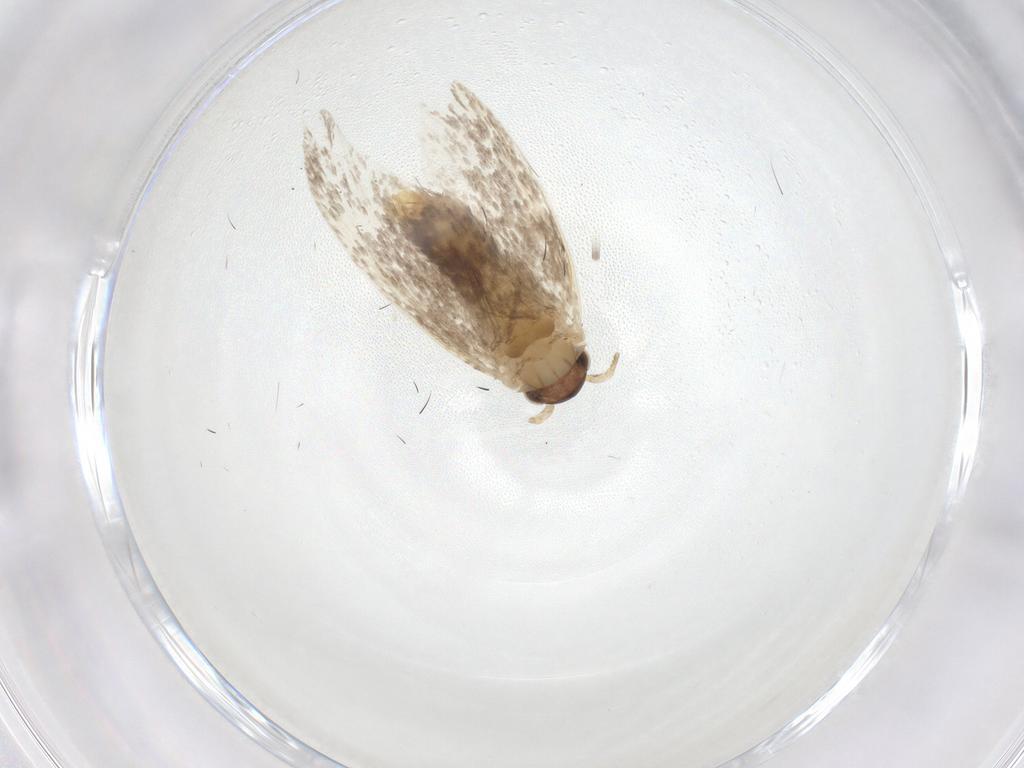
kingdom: Animalia
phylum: Arthropoda
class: Insecta
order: Lepidoptera
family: Dryadaulidae
